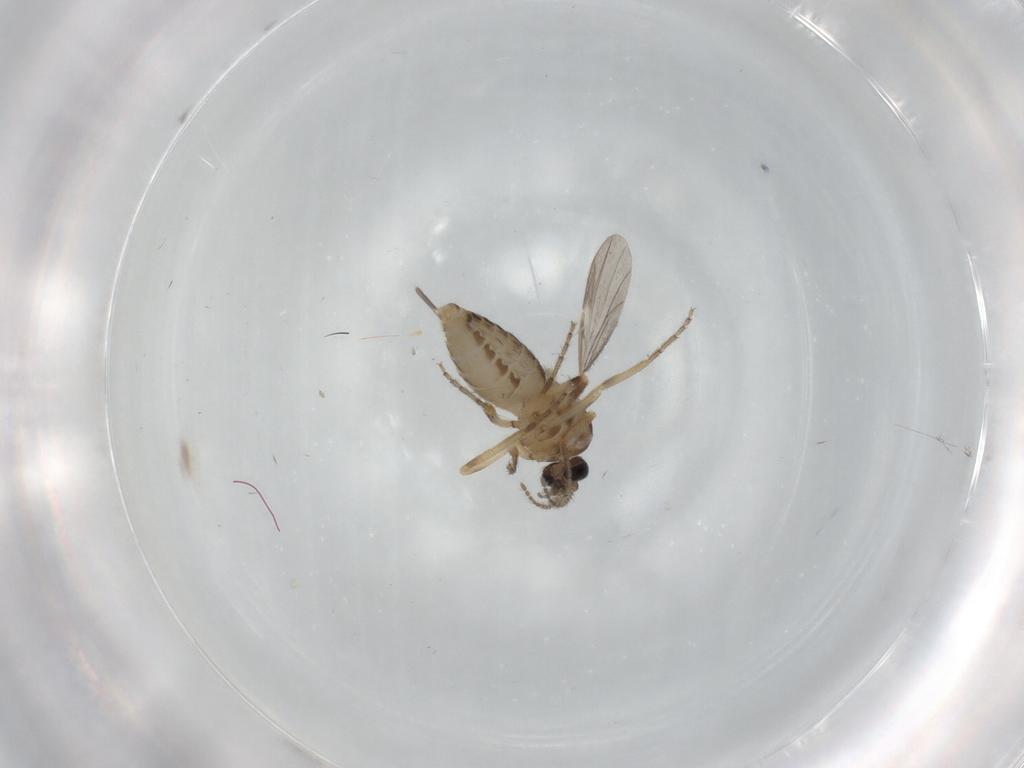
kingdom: Animalia
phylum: Arthropoda
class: Insecta
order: Diptera
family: Ceratopogonidae
